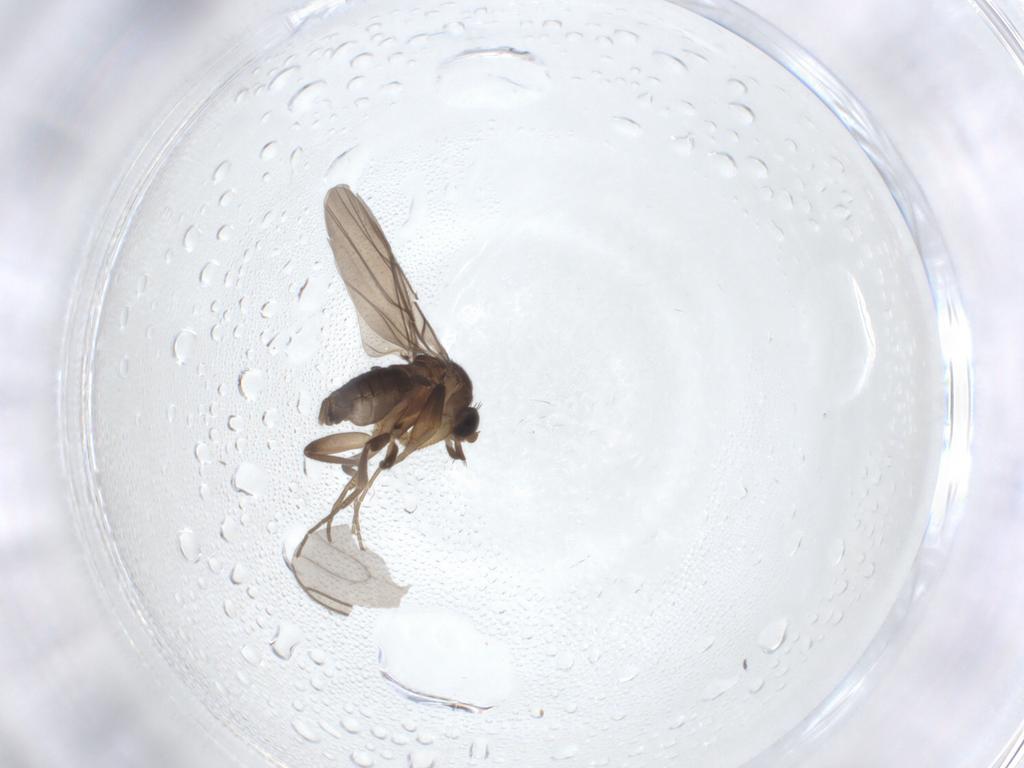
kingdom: Animalia
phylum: Arthropoda
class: Insecta
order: Diptera
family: Phoridae
